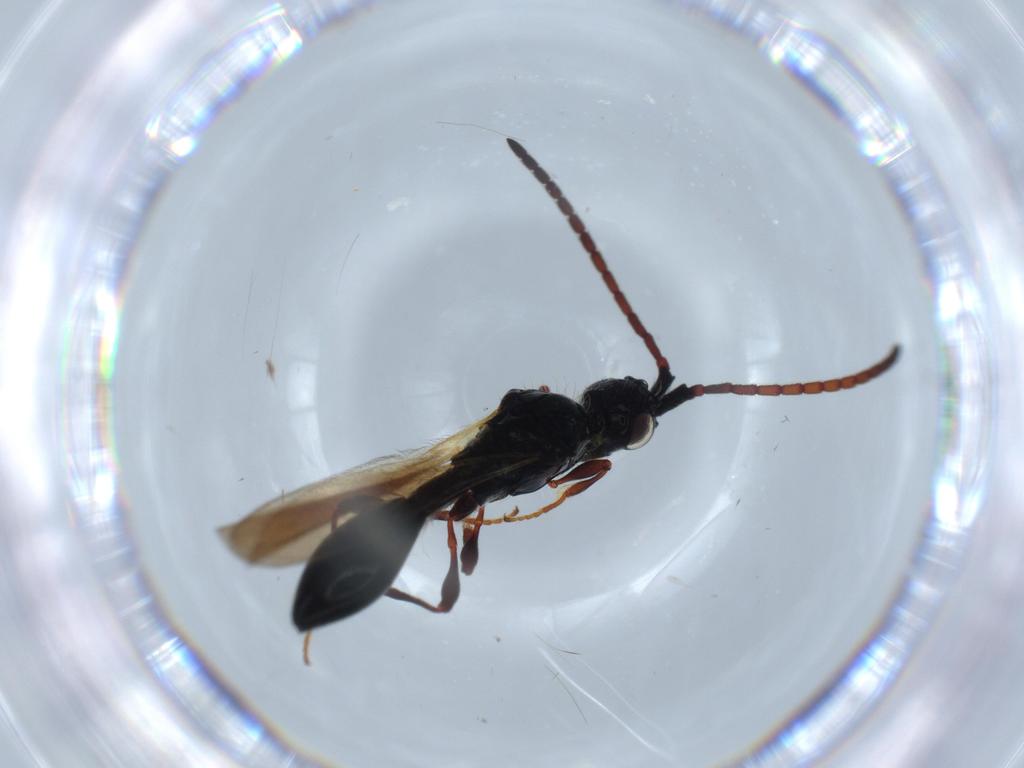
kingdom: Animalia
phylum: Arthropoda
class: Insecta
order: Hymenoptera
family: Diapriidae
